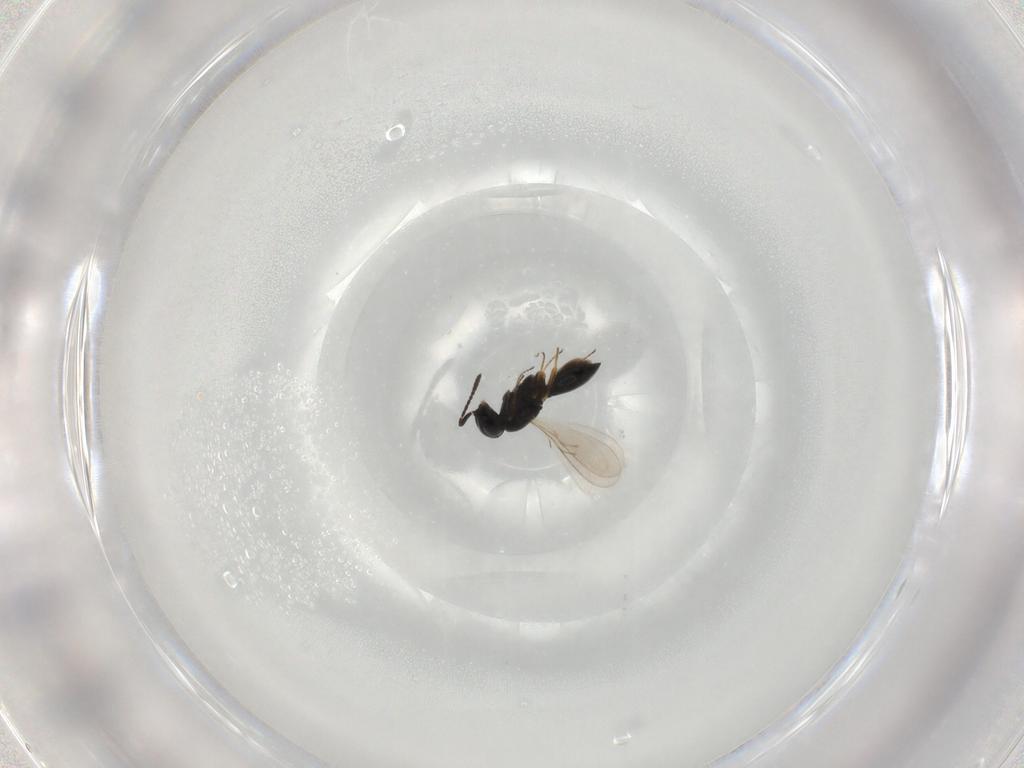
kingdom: Animalia
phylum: Arthropoda
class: Insecta
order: Hymenoptera
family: Scelionidae
